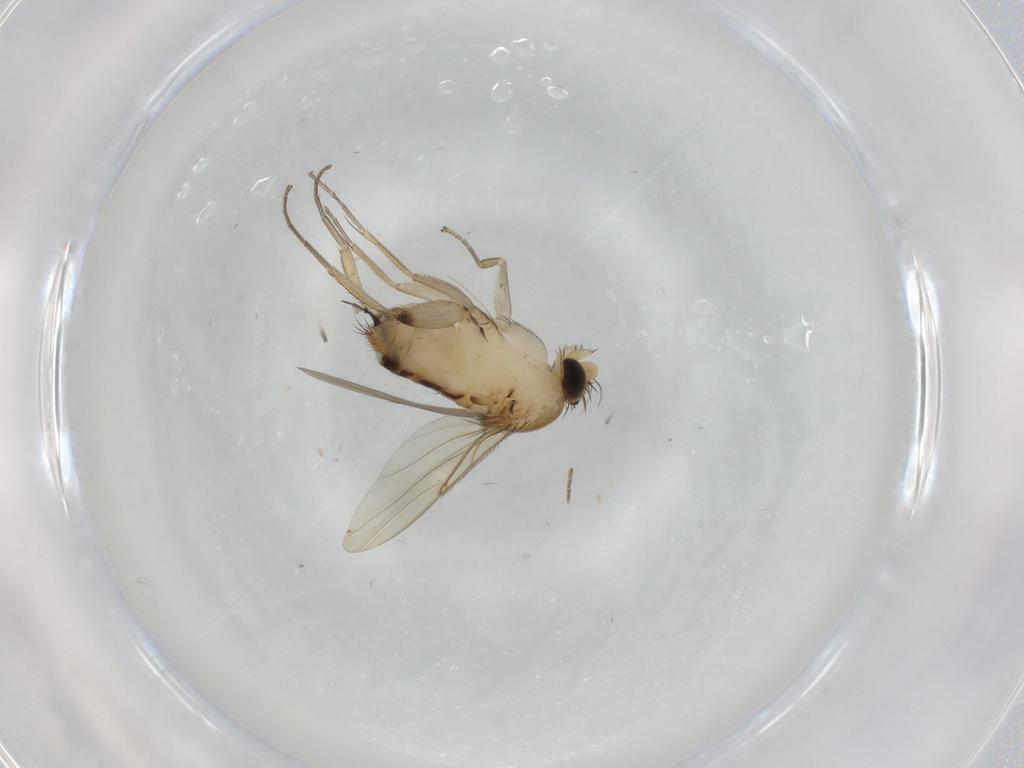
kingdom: Animalia
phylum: Arthropoda
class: Insecta
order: Diptera
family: Phoridae
